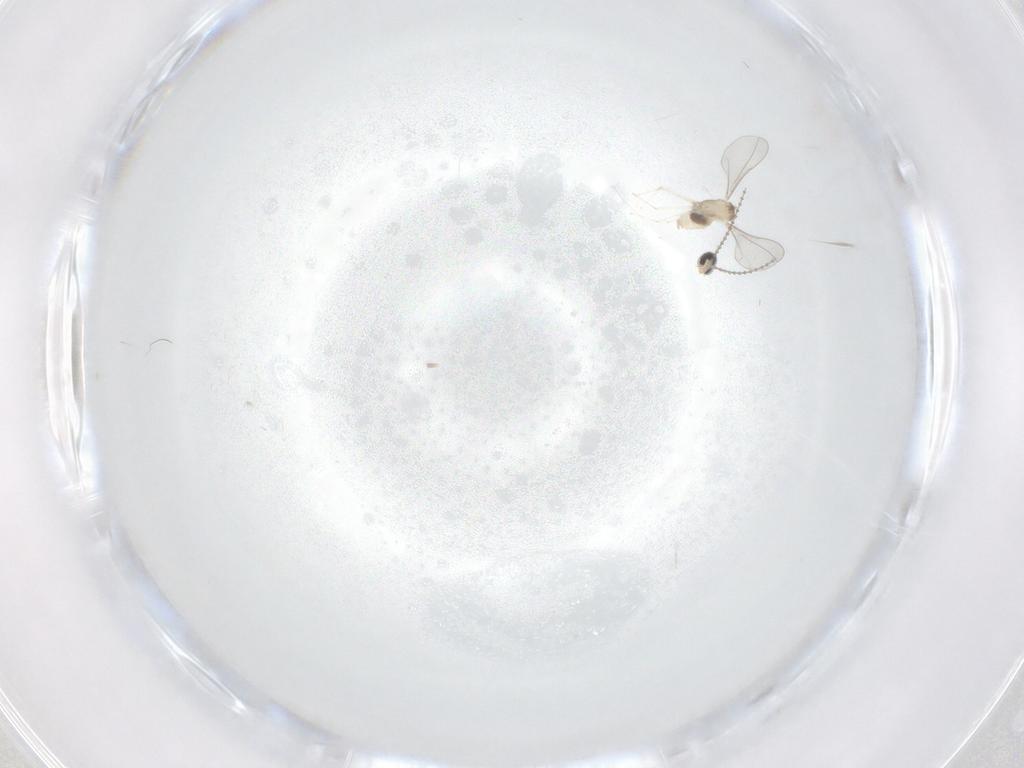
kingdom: Animalia
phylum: Arthropoda
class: Insecta
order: Diptera
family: Cecidomyiidae
